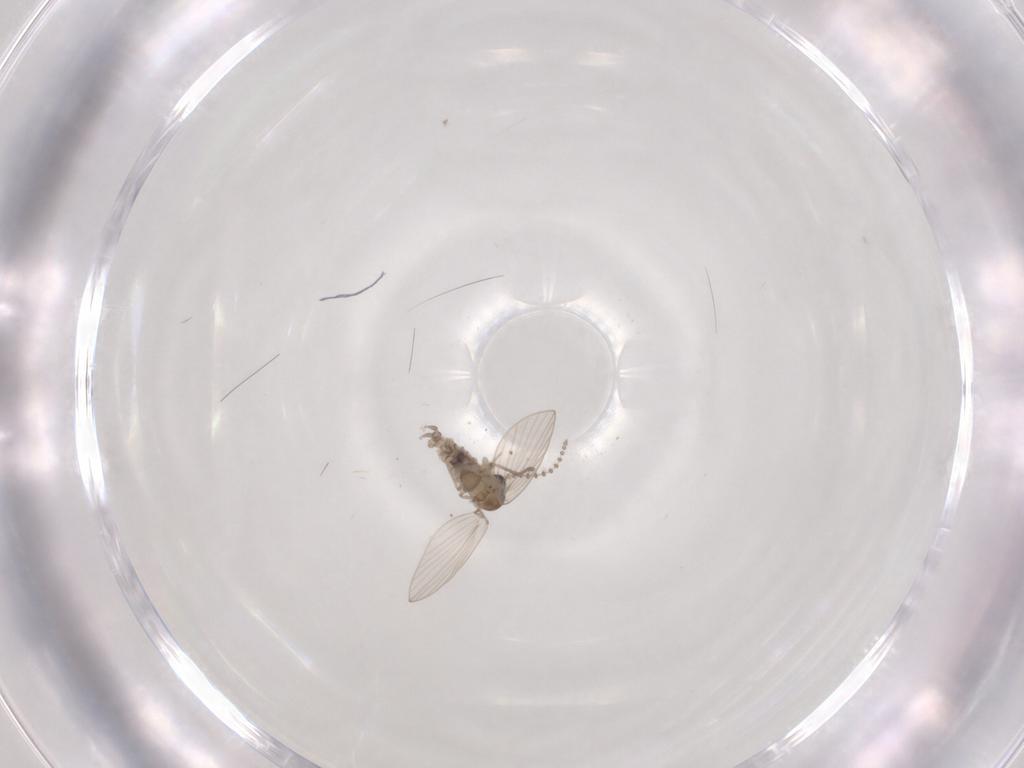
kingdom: Animalia
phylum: Arthropoda
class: Insecta
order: Diptera
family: Psychodidae
